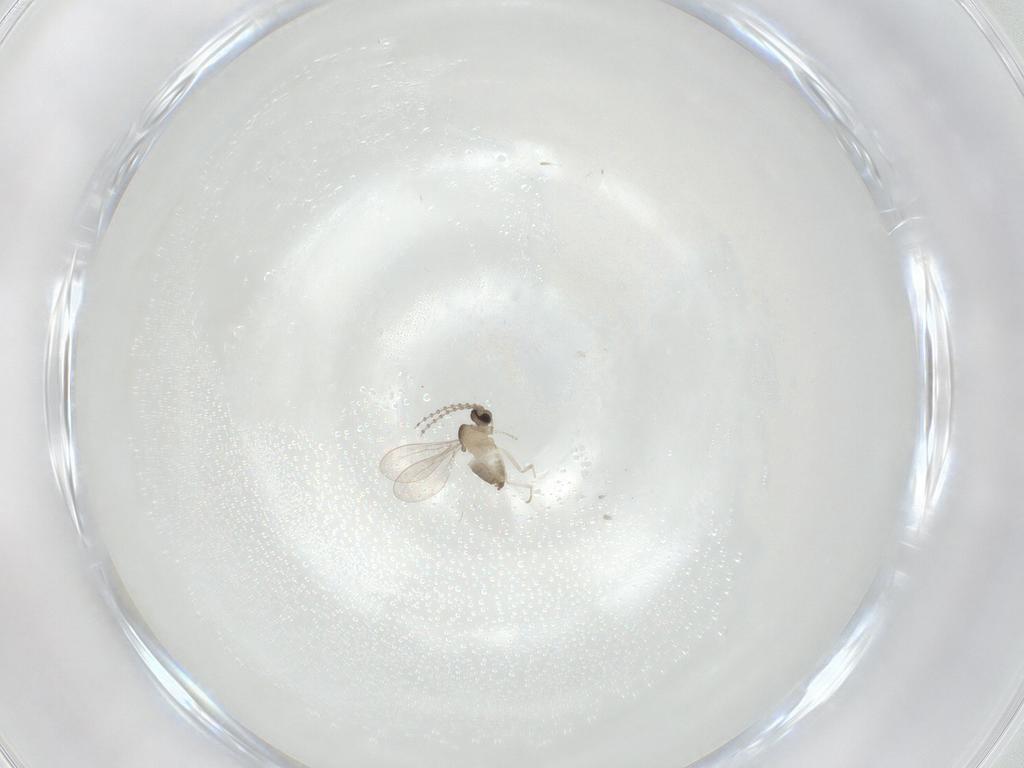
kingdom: Animalia
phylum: Arthropoda
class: Insecta
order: Diptera
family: Cecidomyiidae
